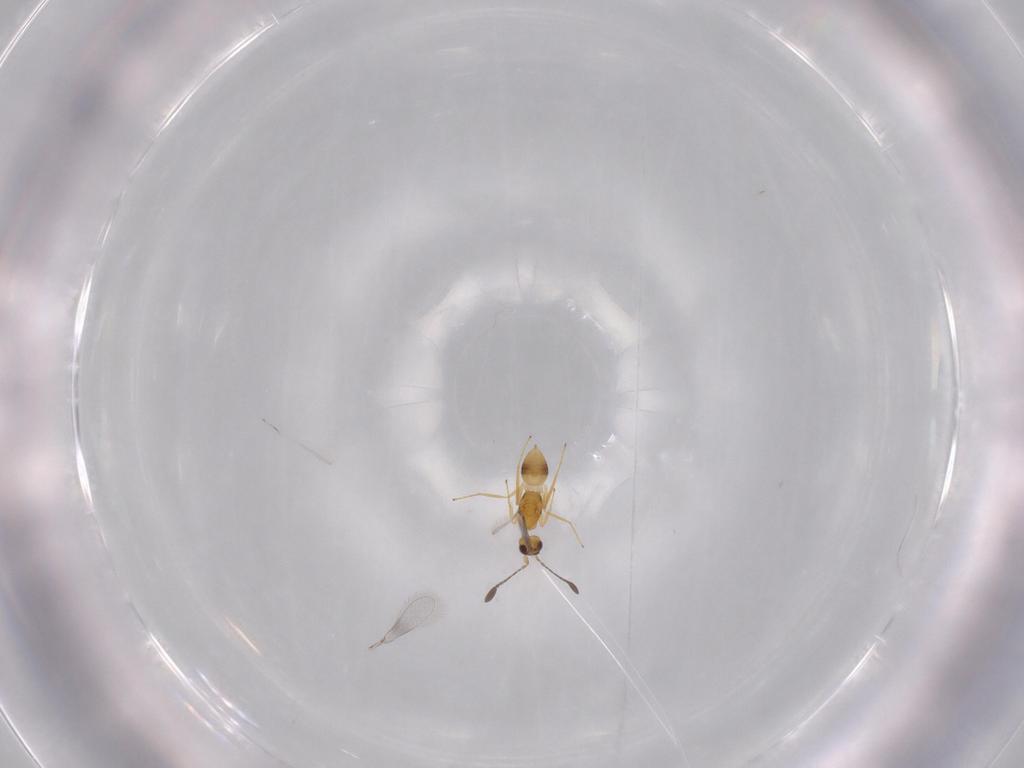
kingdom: Animalia
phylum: Arthropoda
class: Insecta
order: Hymenoptera
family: Mymaridae
